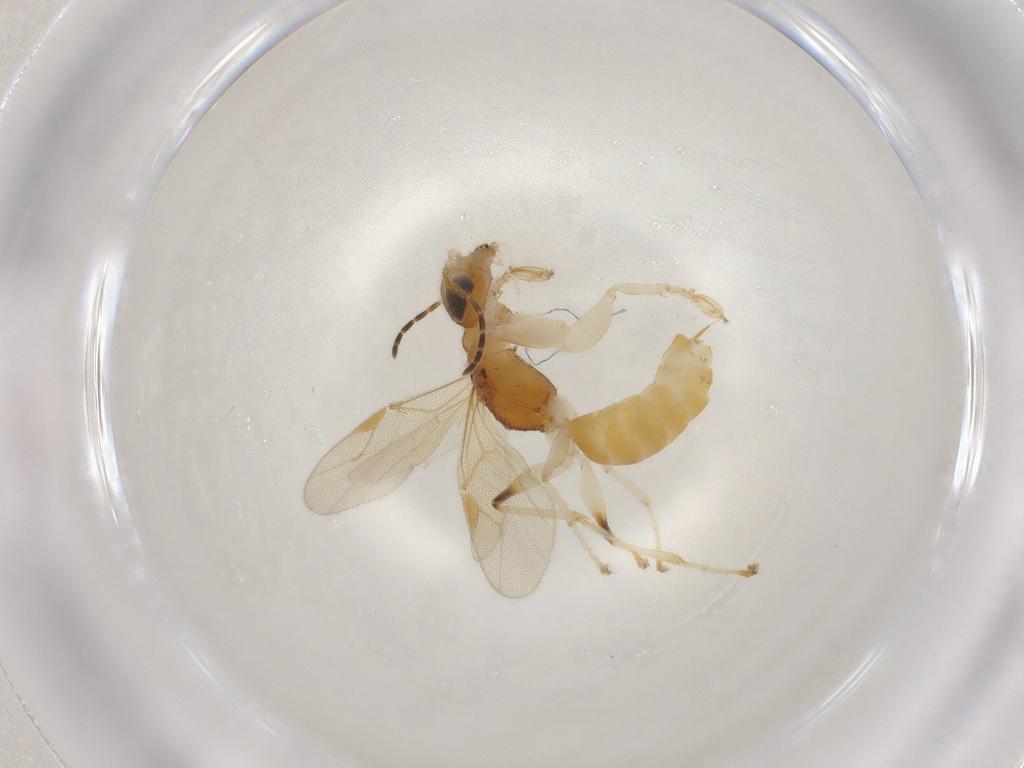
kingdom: Animalia
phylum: Arthropoda
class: Insecta
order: Hymenoptera
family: Dryinidae
